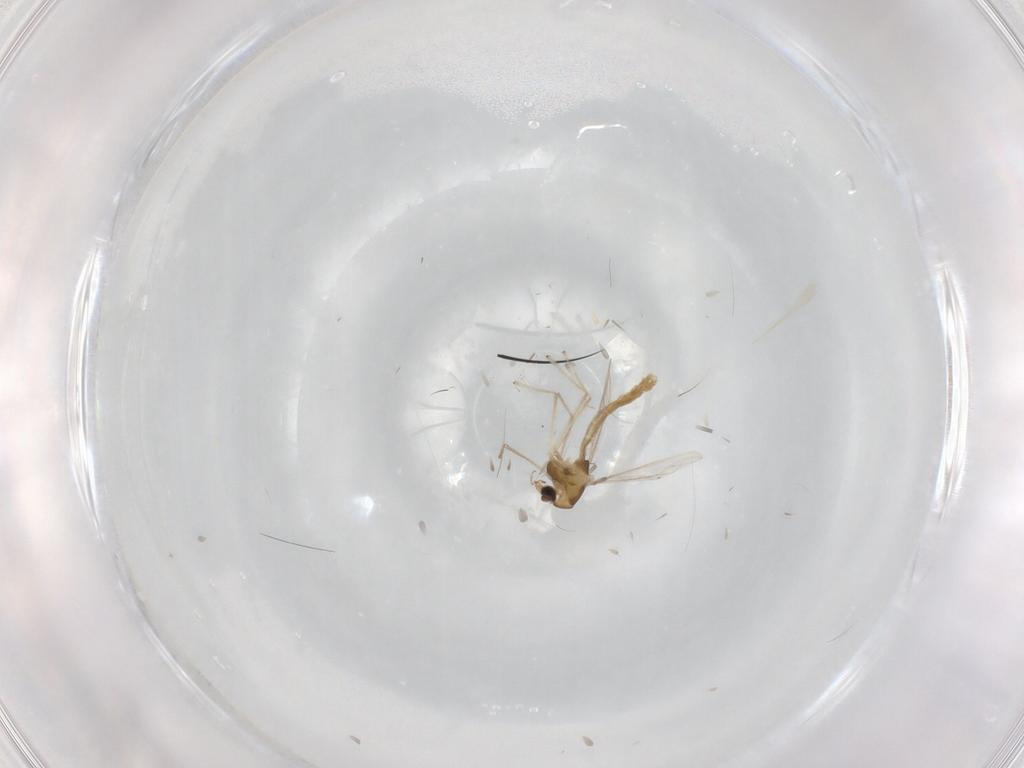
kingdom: Animalia
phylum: Arthropoda
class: Insecta
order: Diptera
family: Chironomidae
